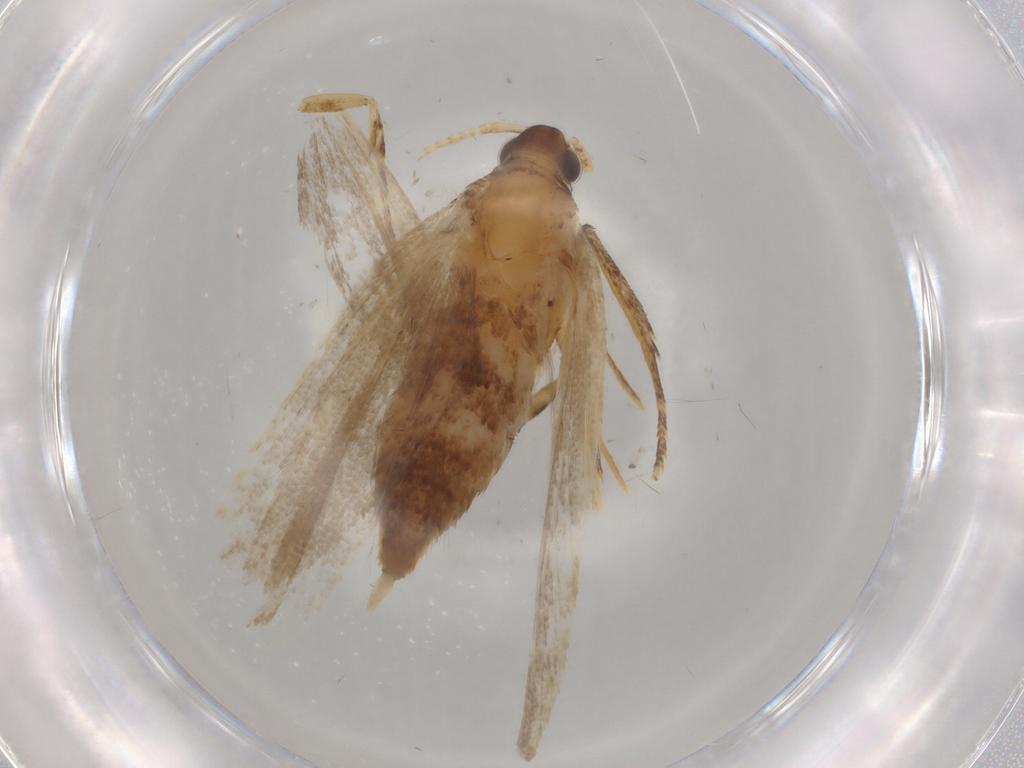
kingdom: Animalia
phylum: Arthropoda
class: Insecta
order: Lepidoptera
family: Lecithoceridae
